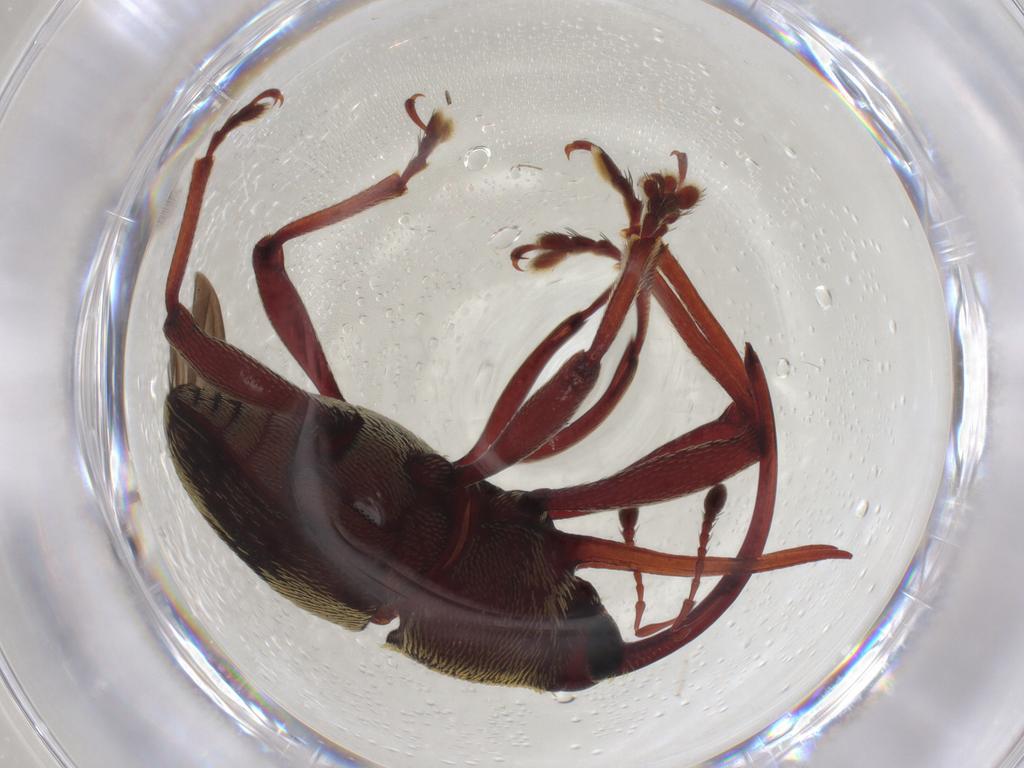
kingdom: Animalia
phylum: Arthropoda
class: Insecta
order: Coleoptera
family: Curculionidae
